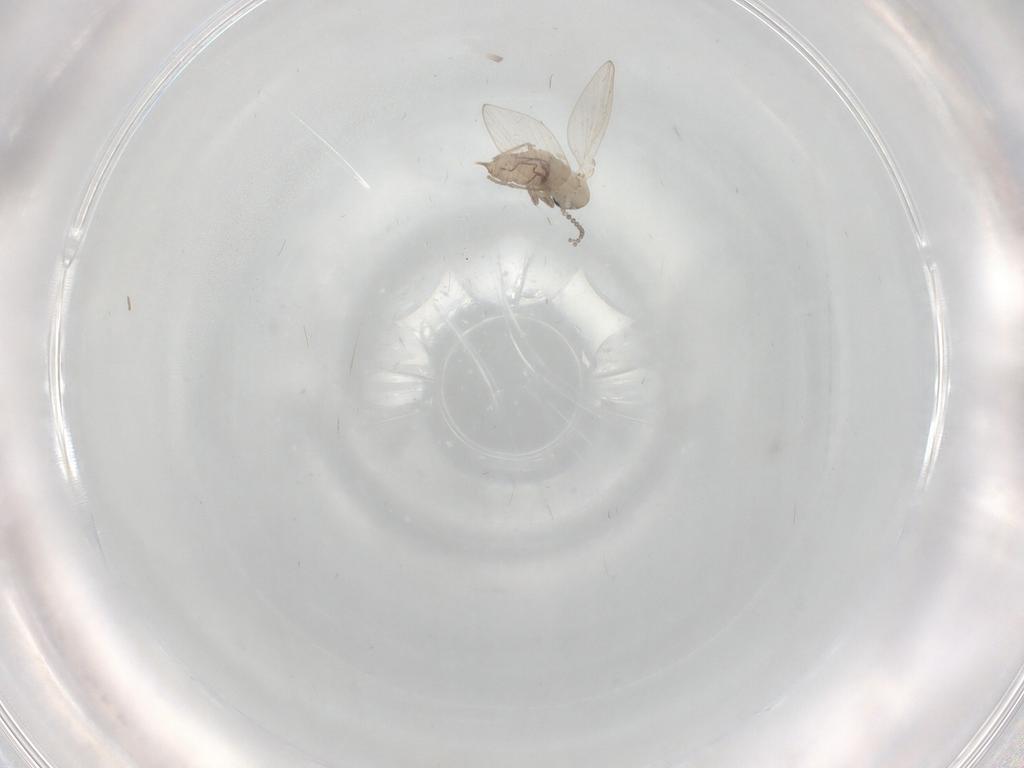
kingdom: Animalia
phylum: Arthropoda
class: Insecta
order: Diptera
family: Psychodidae
